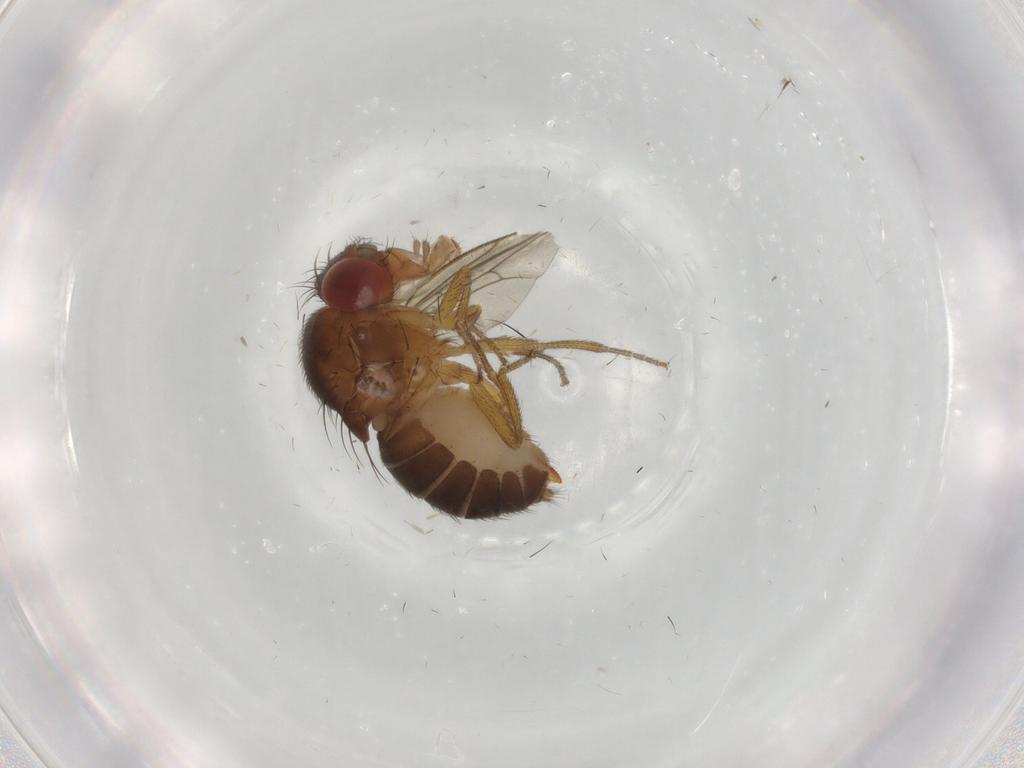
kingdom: Animalia
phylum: Arthropoda
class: Insecta
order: Diptera
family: Drosophilidae
